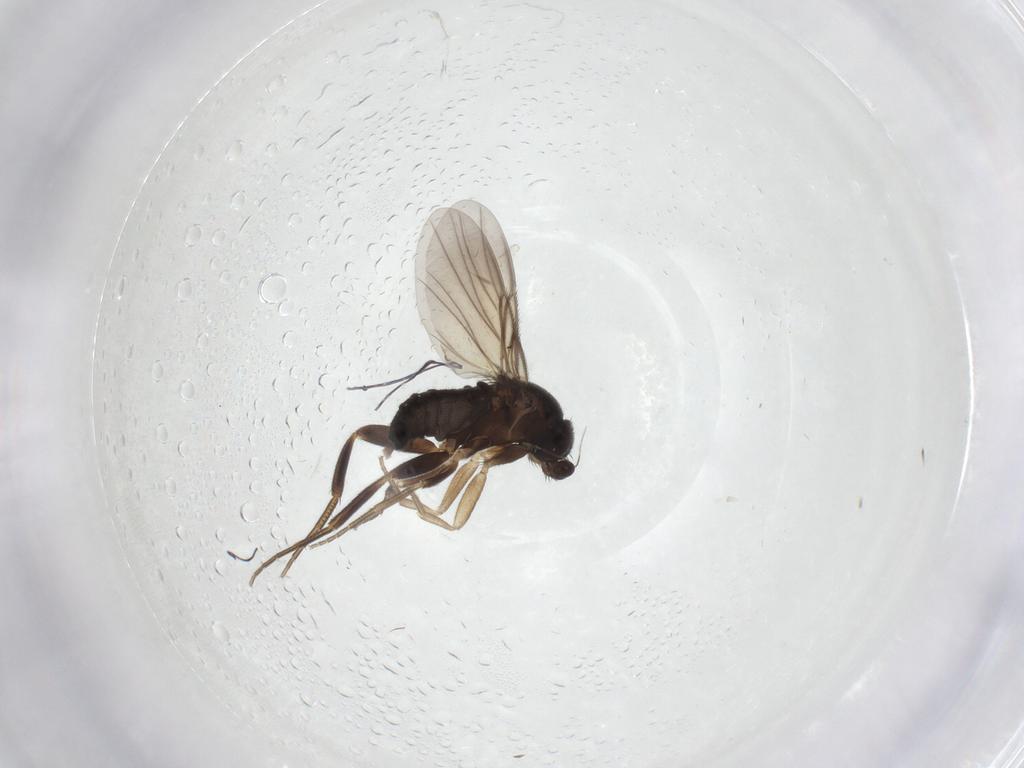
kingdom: Animalia
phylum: Arthropoda
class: Insecta
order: Diptera
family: Phoridae
